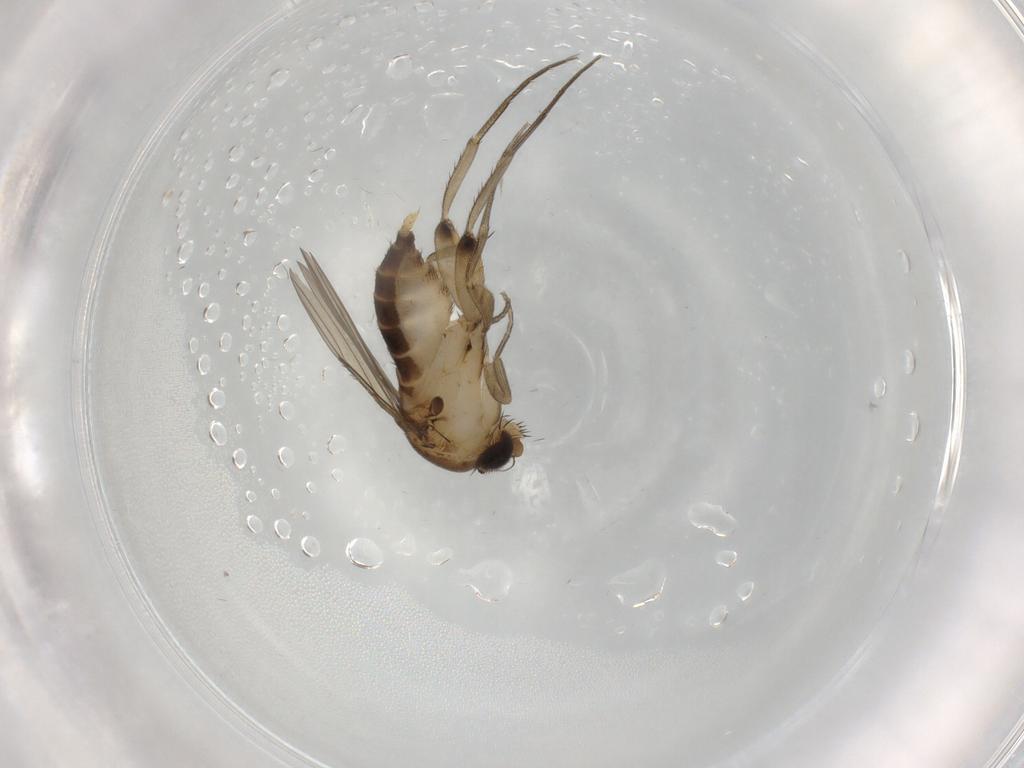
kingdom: Animalia
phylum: Arthropoda
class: Insecta
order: Diptera
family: Phoridae
